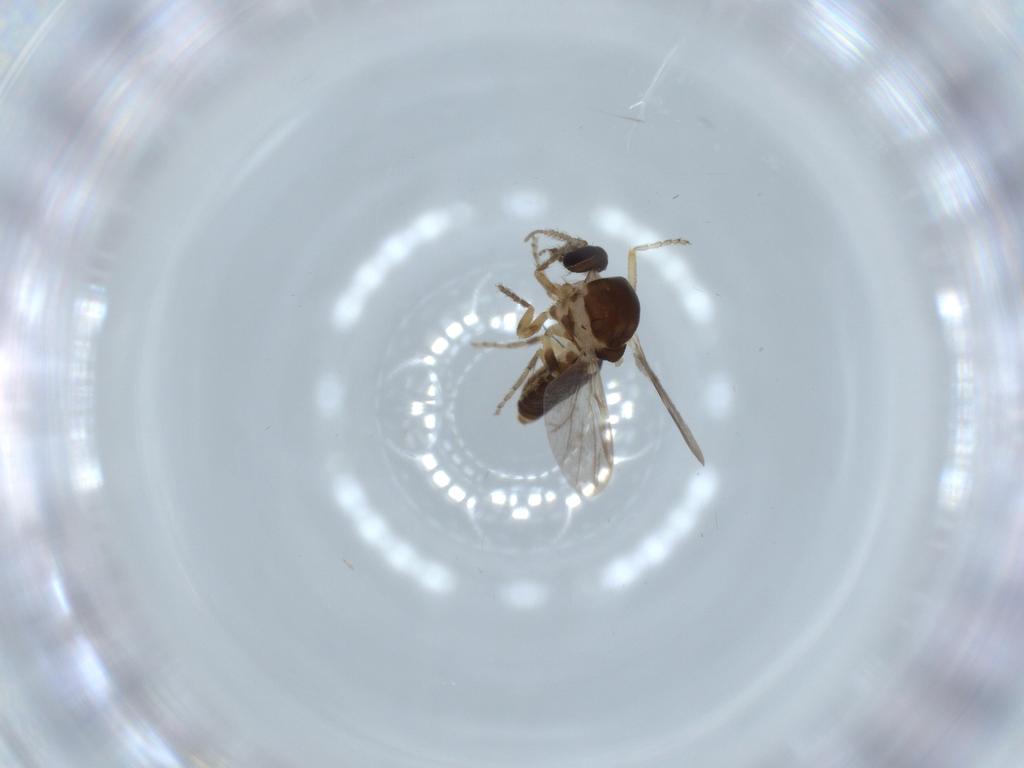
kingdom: Animalia
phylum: Arthropoda
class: Insecta
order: Diptera
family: Ceratopogonidae
